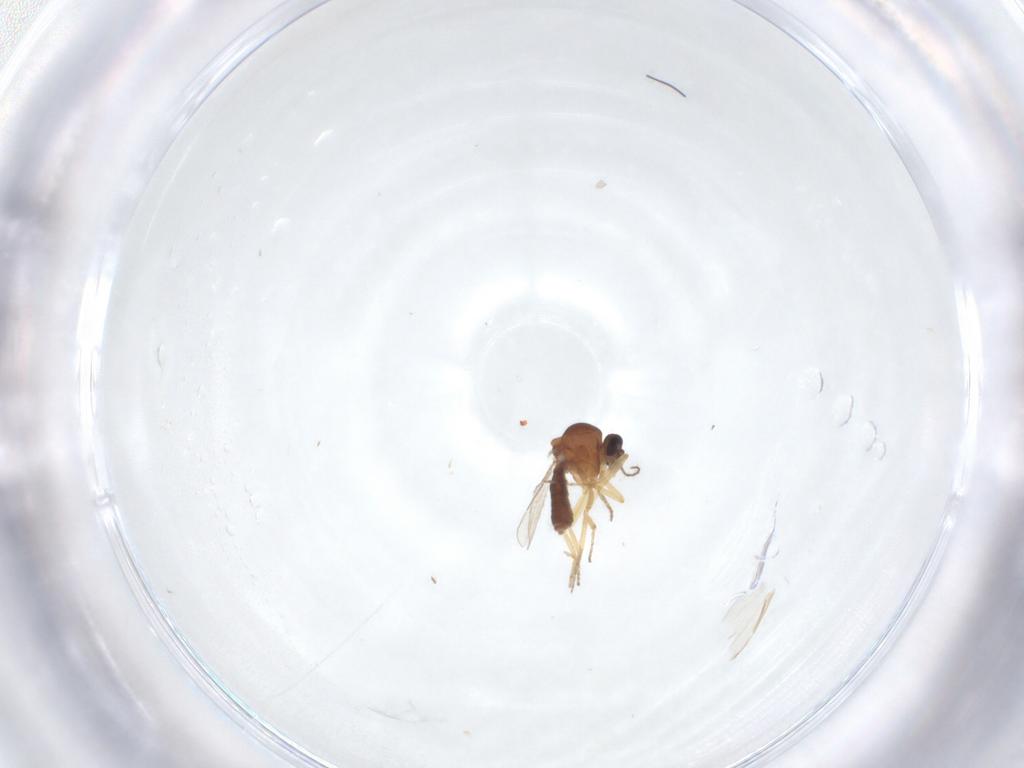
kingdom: Animalia
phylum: Arthropoda
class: Insecta
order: Diptera
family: Ceratopogonidae
